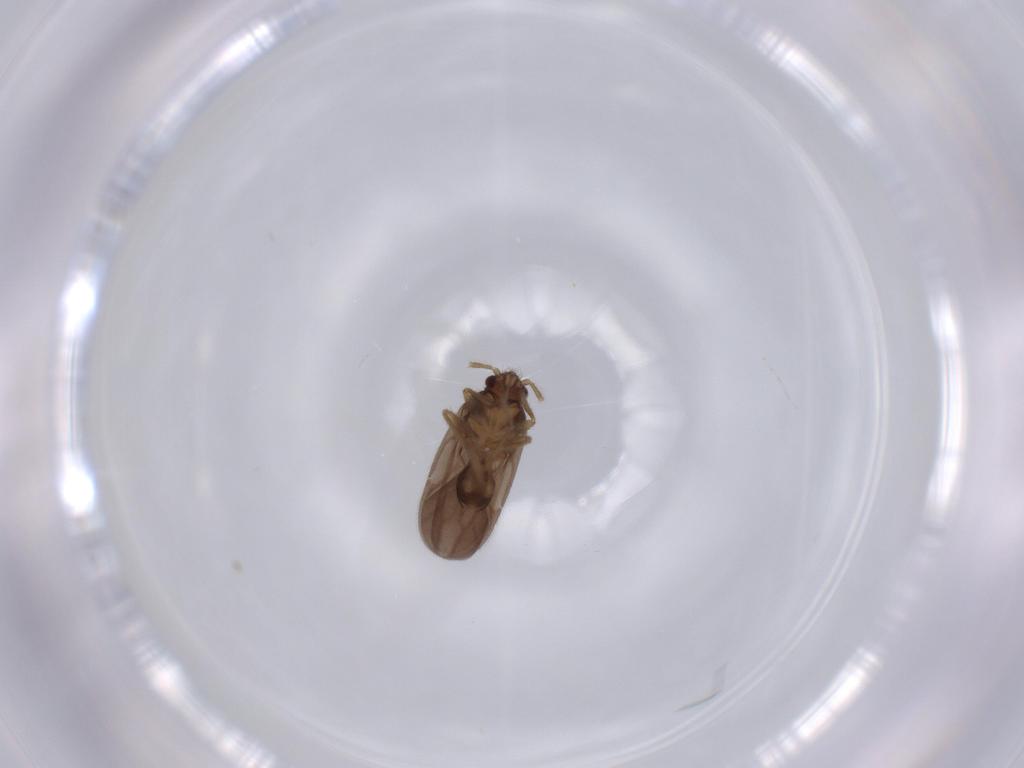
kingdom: Animalia
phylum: Arthropoda
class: Insecta
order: Hemiptera
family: Ceratocombidae
